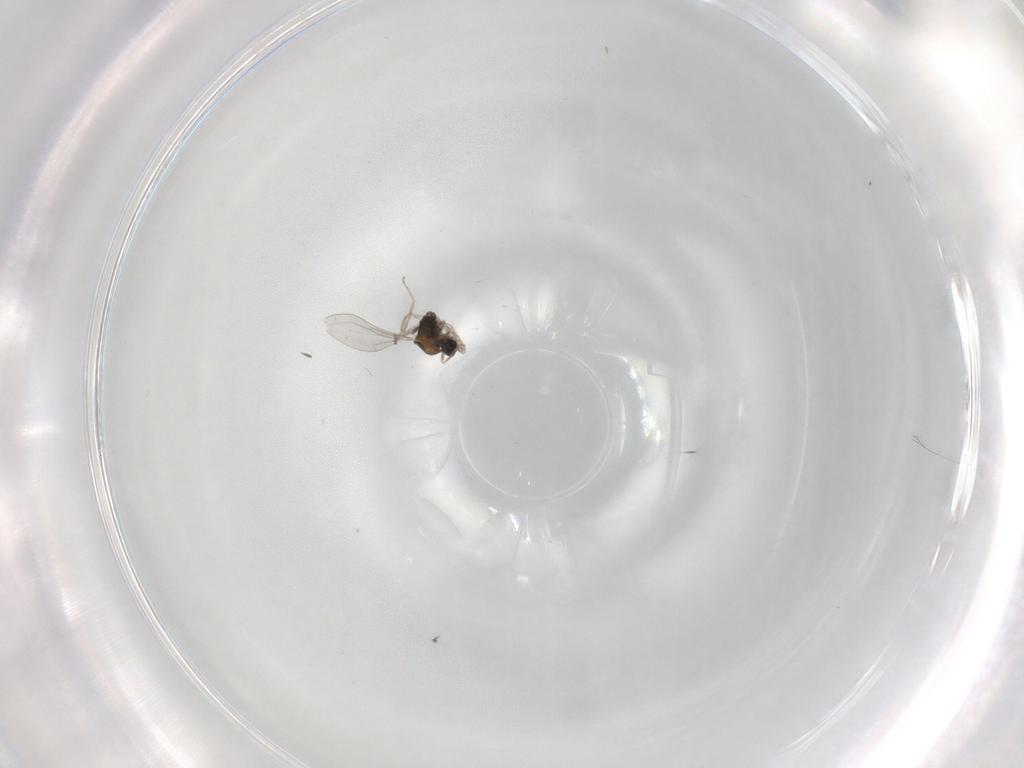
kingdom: Animalia
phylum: Arthropoda
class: Insecta
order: Diptera
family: Cecidomyiidae
